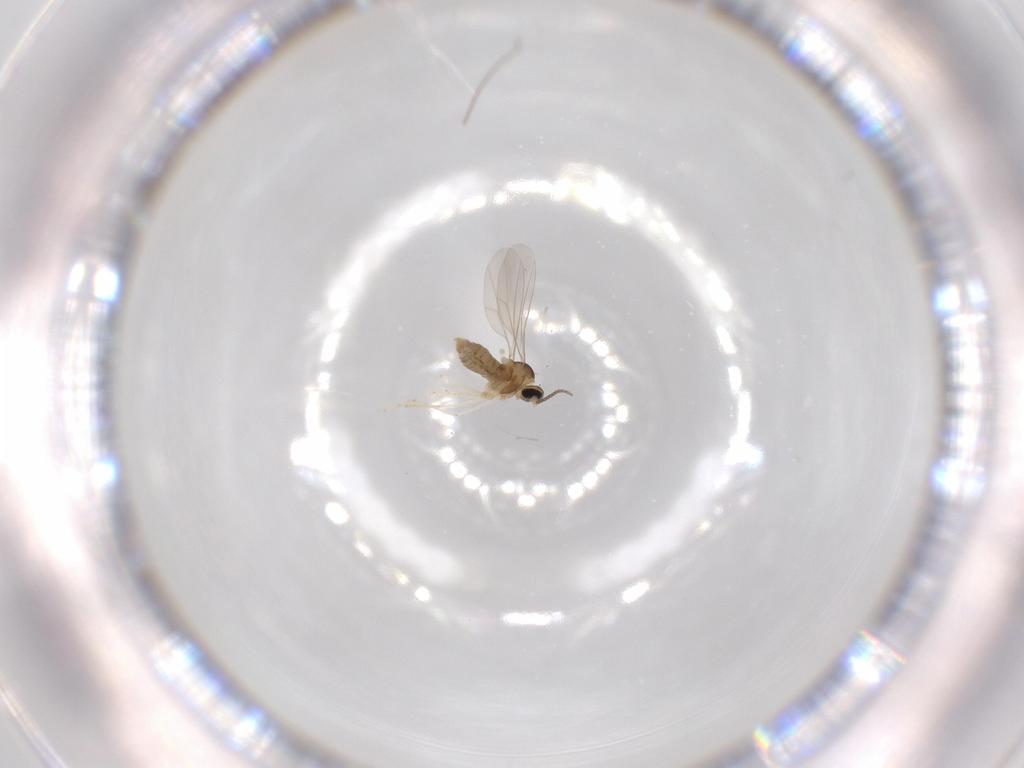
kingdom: Animalia
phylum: Arthropoda
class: Insecta
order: Diptera
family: Cecidomyiidae
